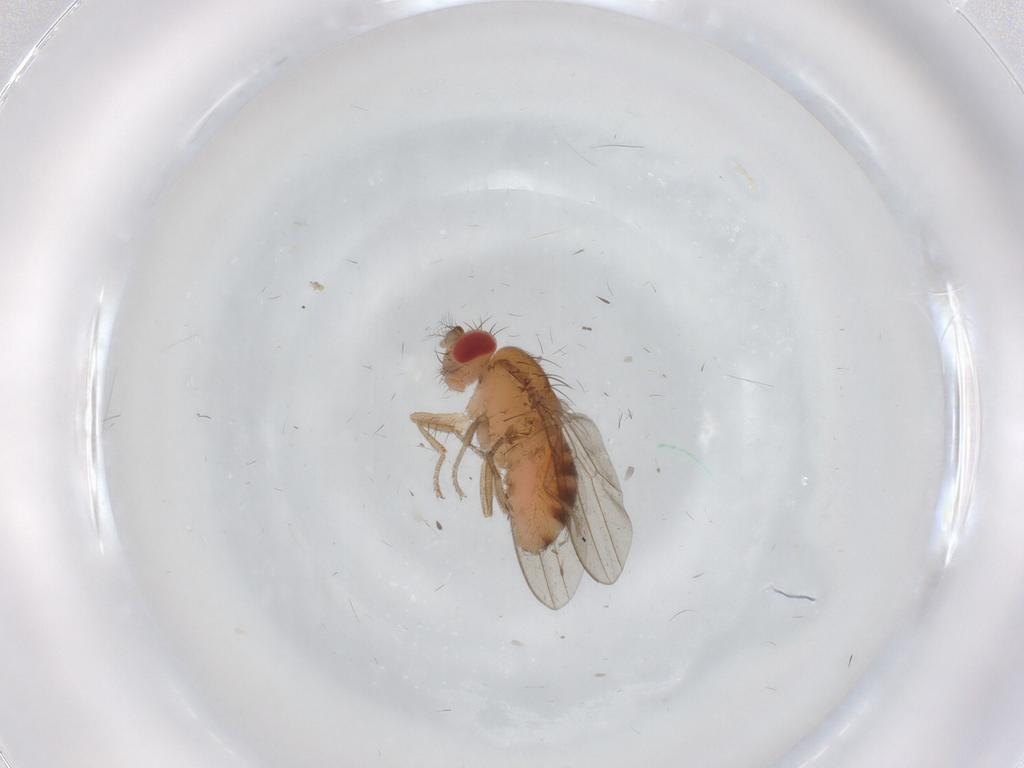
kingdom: Animalia
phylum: Arthropoda
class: Insecta
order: Diptera
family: Drosophilidae
